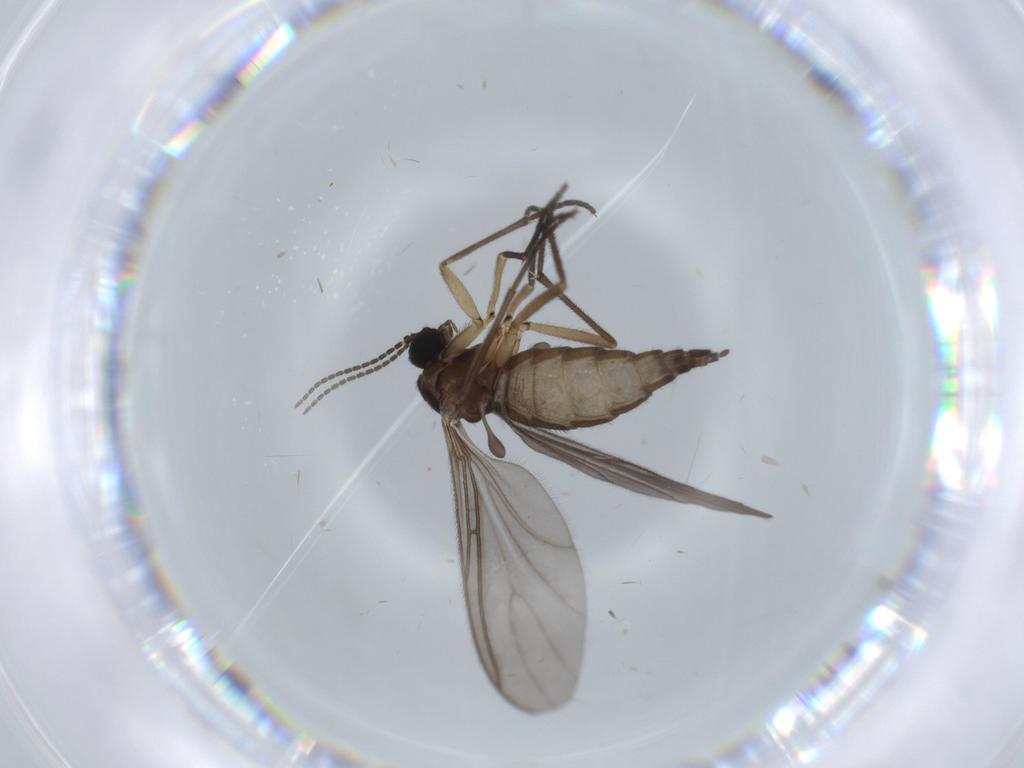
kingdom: Animalia
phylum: Arthropoda
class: Insecta
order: Diptera
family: Sciaridae
